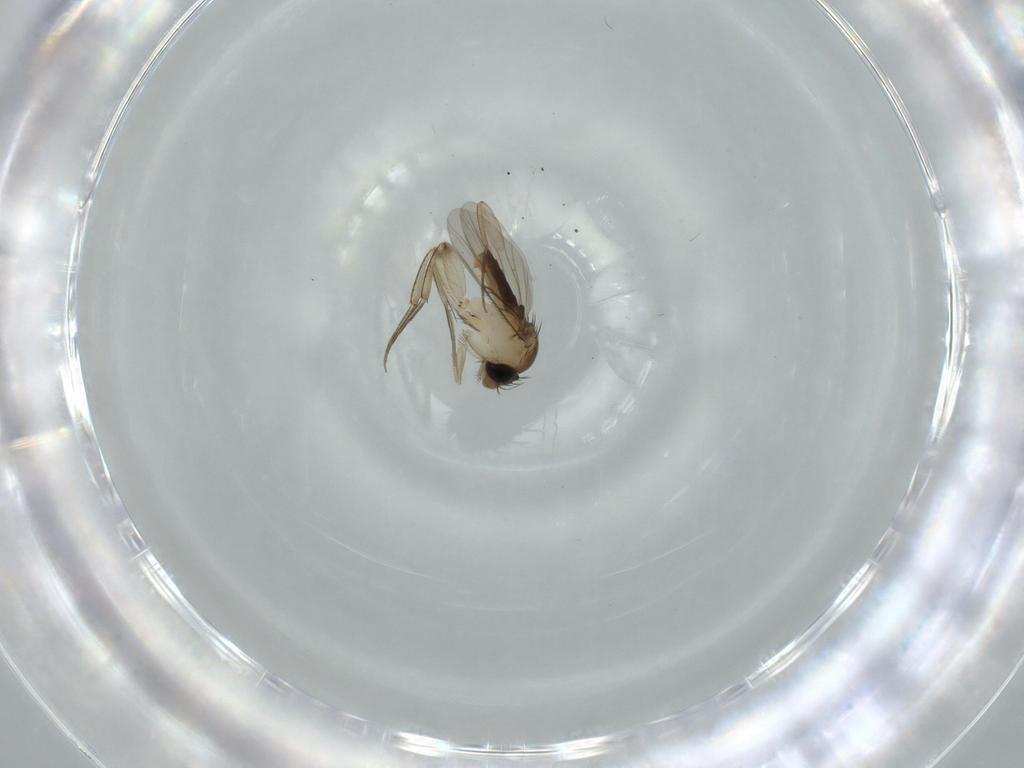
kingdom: Animalia
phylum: Arthropoda
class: Insecta
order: Diptera
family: Phoridae
